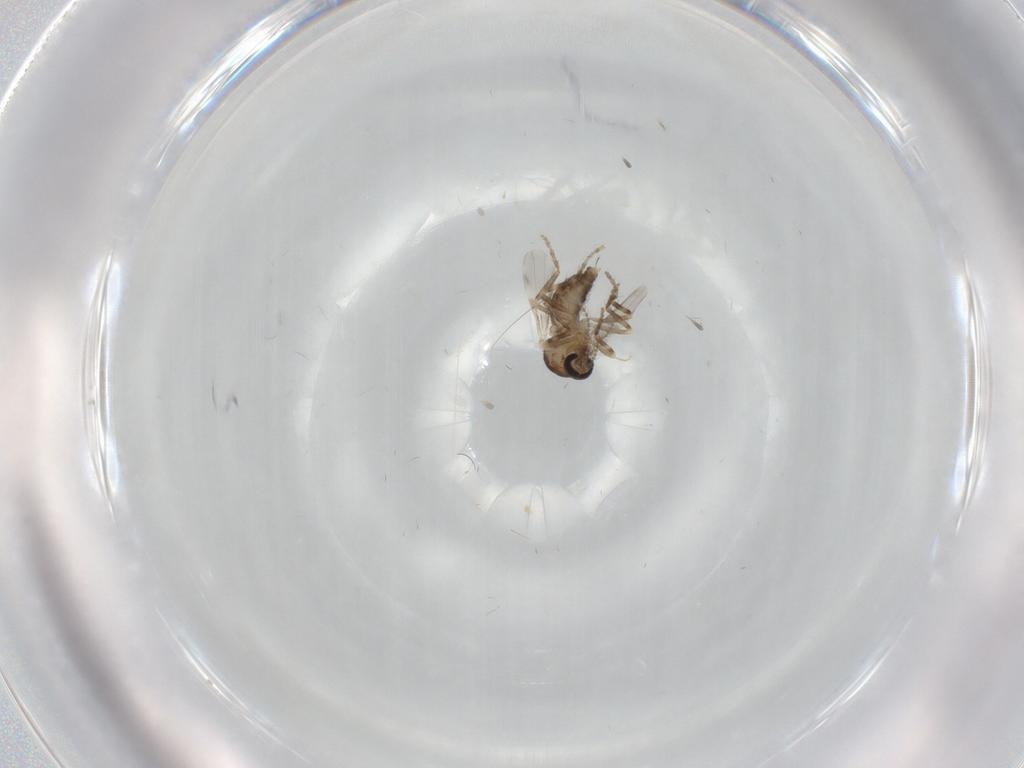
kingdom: Animalia
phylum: Arthropoda
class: Insecta
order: Diptera
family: Ceratopogonidae
